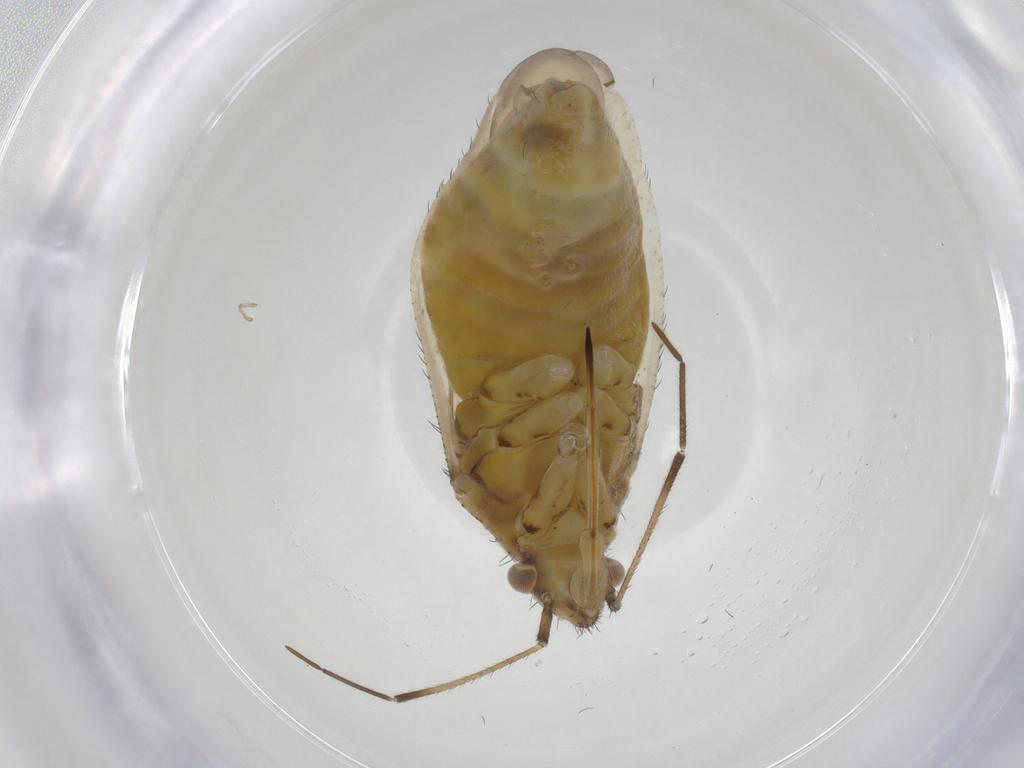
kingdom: Animalia
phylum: Arthropoda
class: Insecta
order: Hemiptera
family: Miridae
